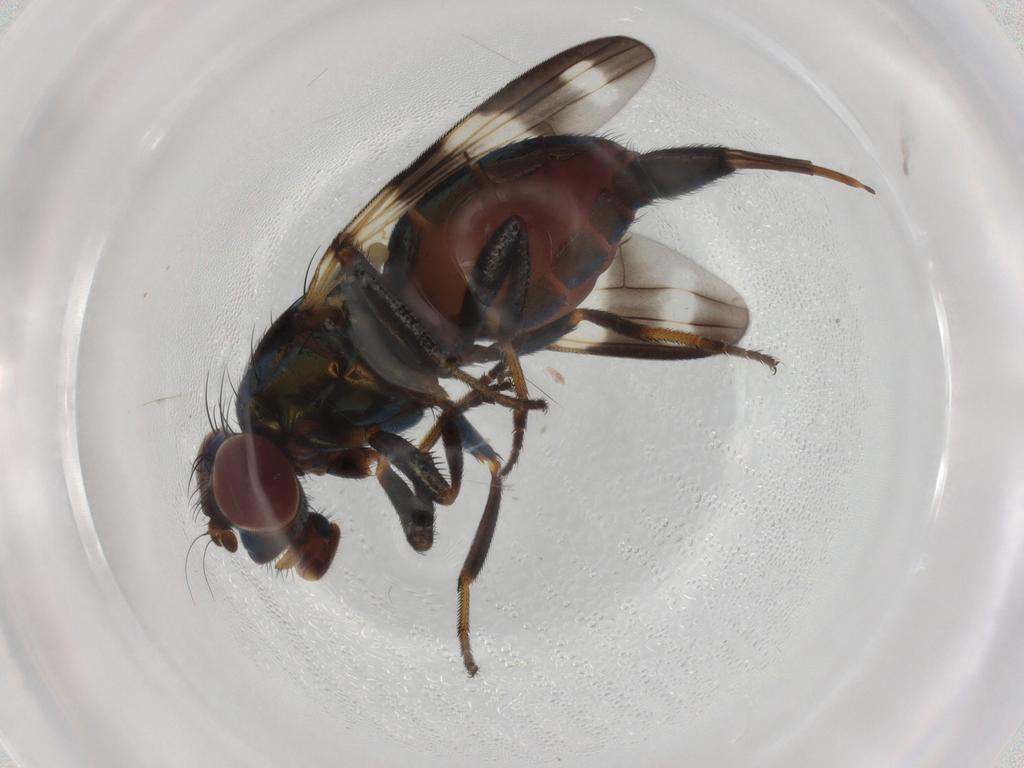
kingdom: Animalia
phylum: Arthropoda
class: Insecta
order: Diptera
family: Ulidiidae
